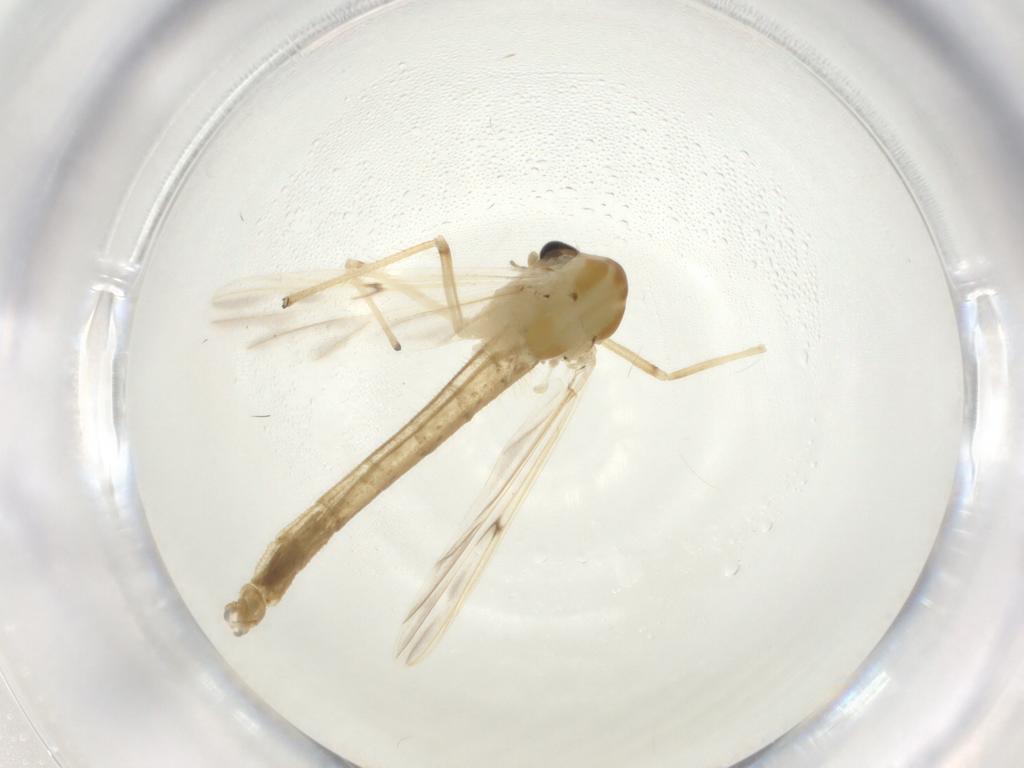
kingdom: Animalia
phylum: Arthropoda
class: Insecta
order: Diptera
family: Chironomidae
